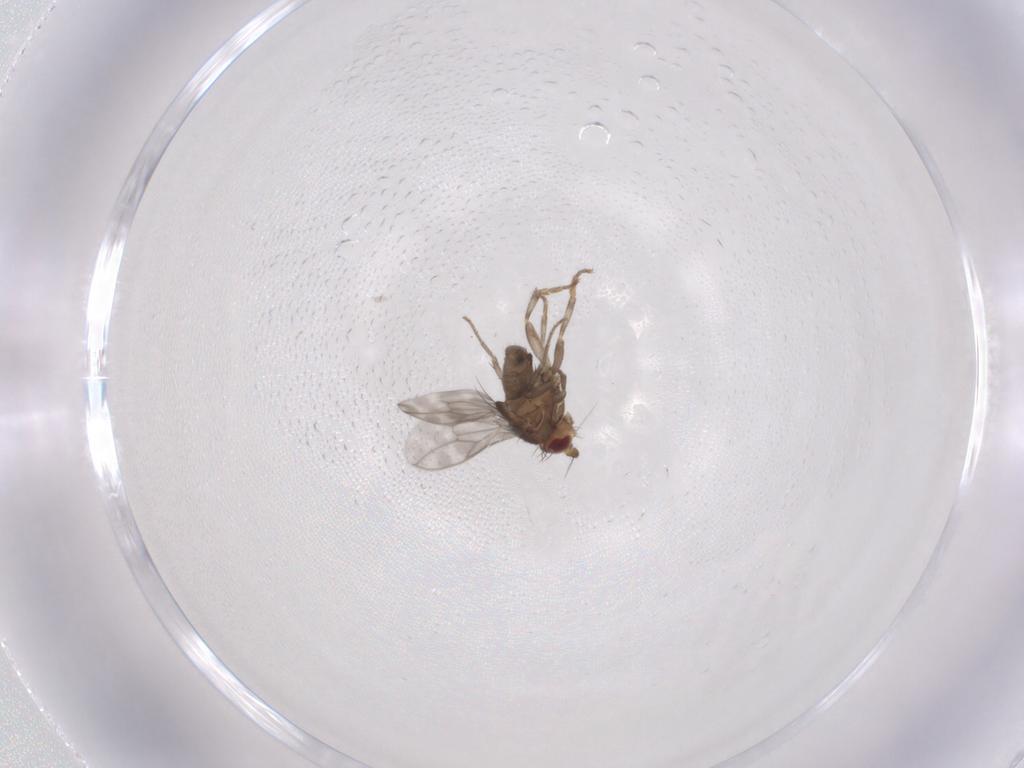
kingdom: Animalia
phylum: Arthropoda
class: Insecta
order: Diptera
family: Sphaeroceridae
